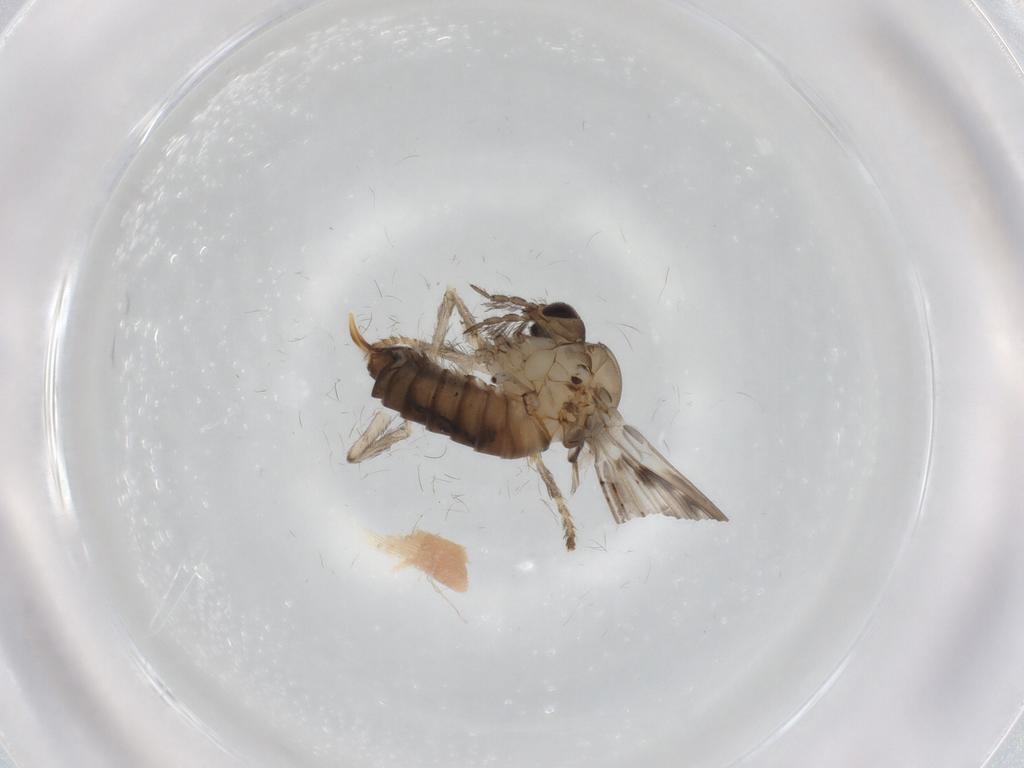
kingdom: Animalia
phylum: Arthropoda
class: Insecta
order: Diptera
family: Psychodidae
